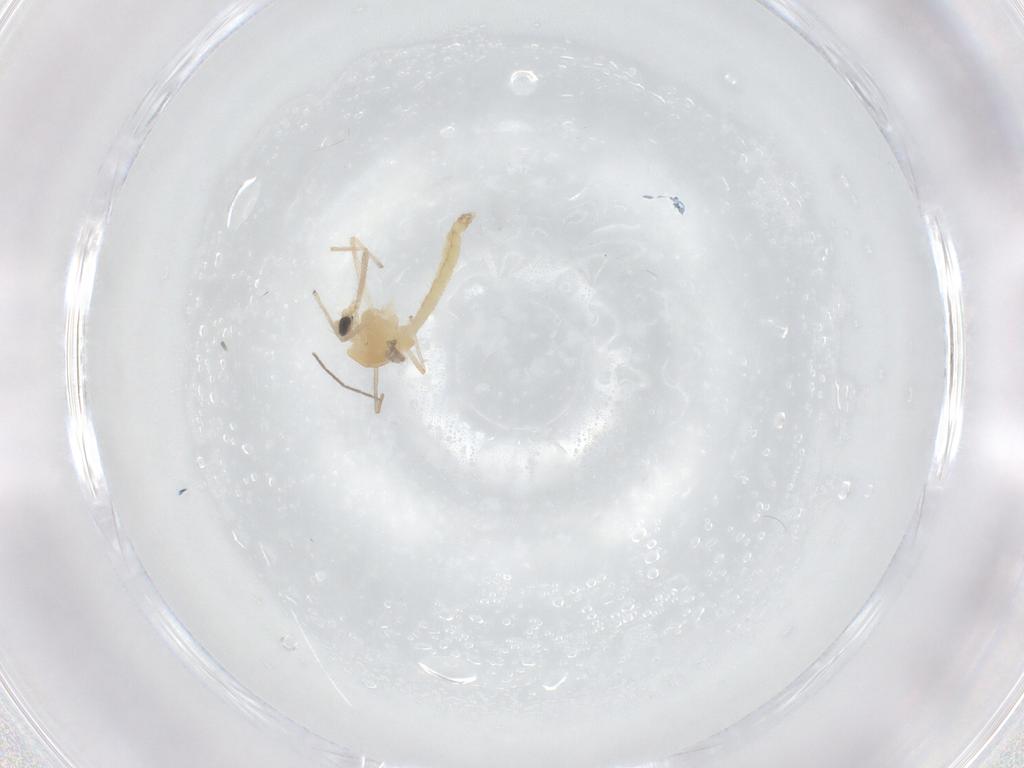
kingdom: Animalia
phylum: Arthropoda
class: Insecta
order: Diptera
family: Chironomidae
